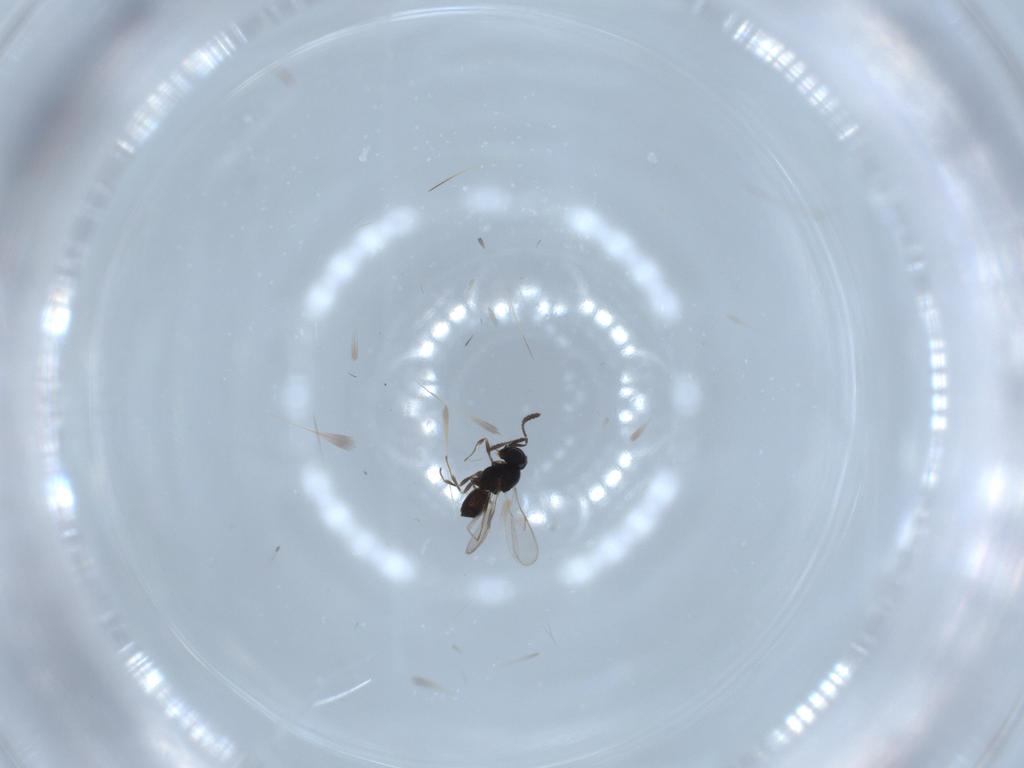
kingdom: Animalia
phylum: Arthropoda
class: Insecta
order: Hymenoptera
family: Scelionidae
